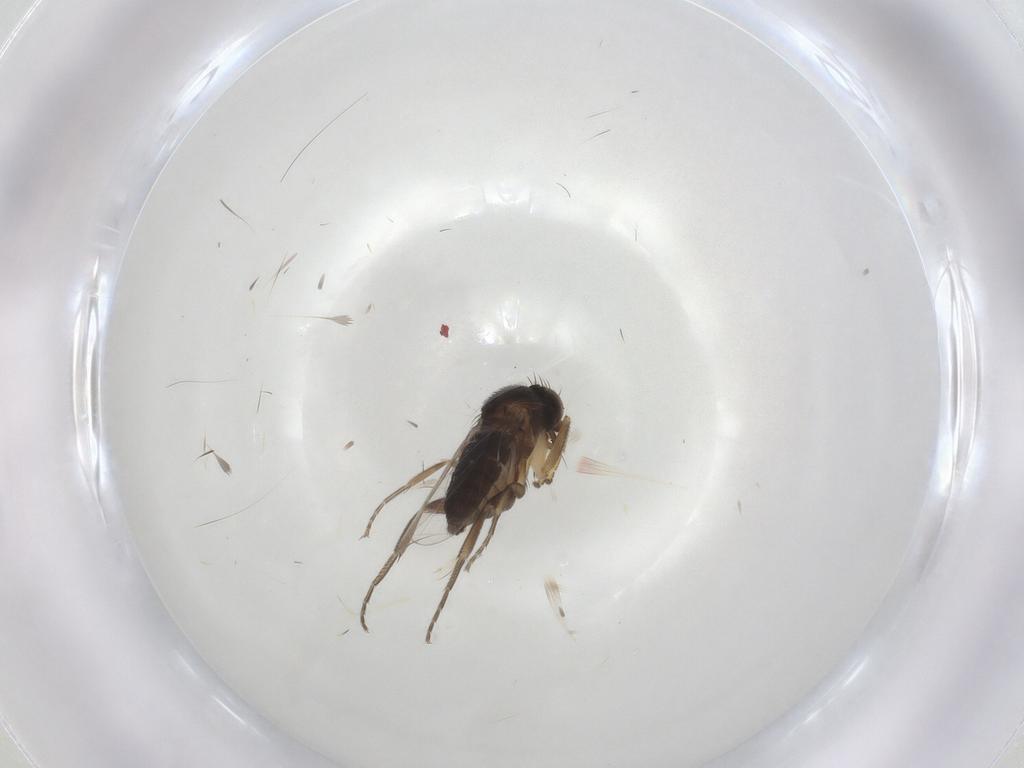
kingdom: Animalia
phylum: Arthropoda
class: Insecta
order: Diptera
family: Phoridae
